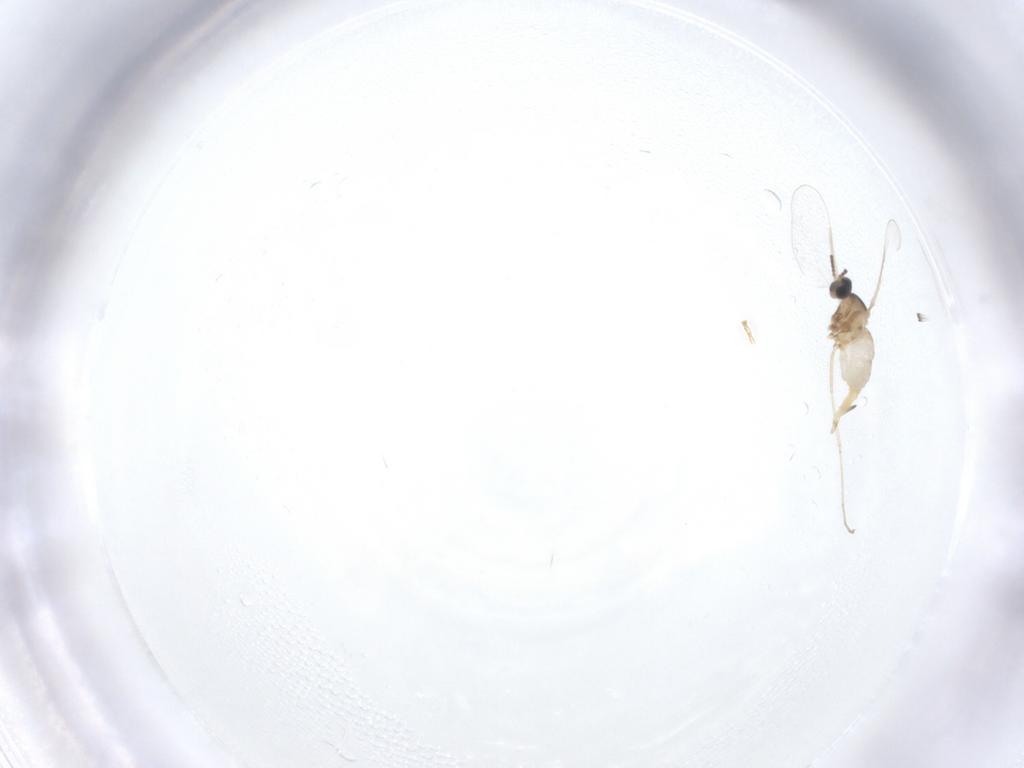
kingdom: Animalia
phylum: Arthropoda
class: Insecta
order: Diptera
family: Cecidomyiidae
